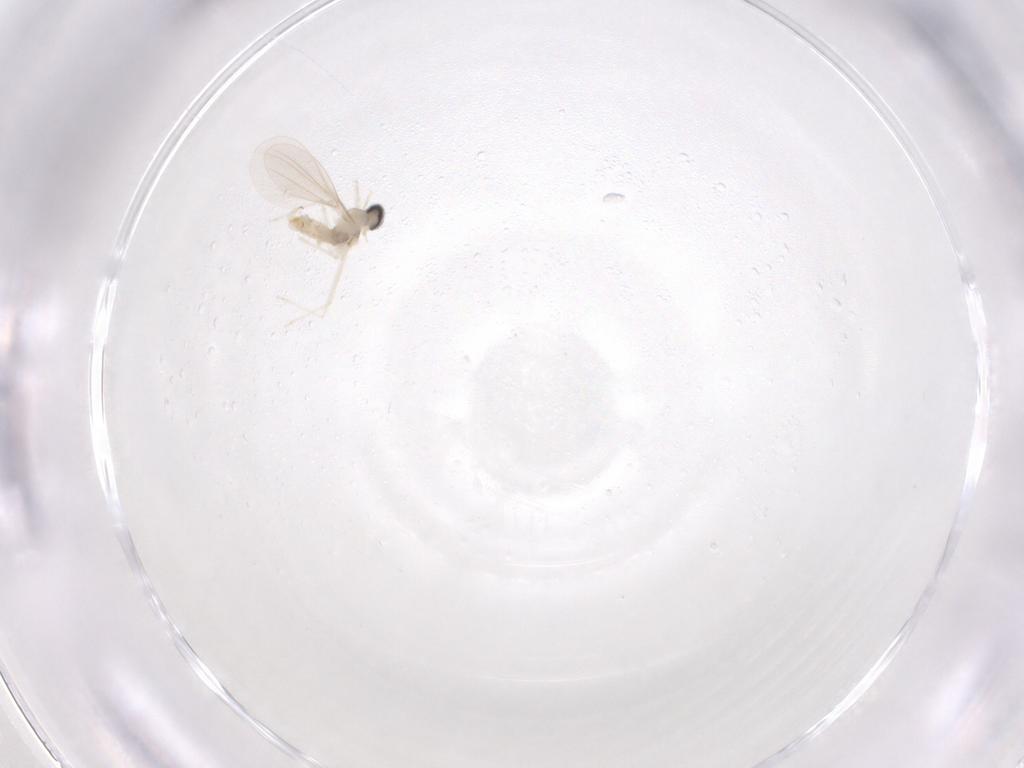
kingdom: Animalia
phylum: Arthropoda
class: Insecta
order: Diptera
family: Cecidomyiidae
